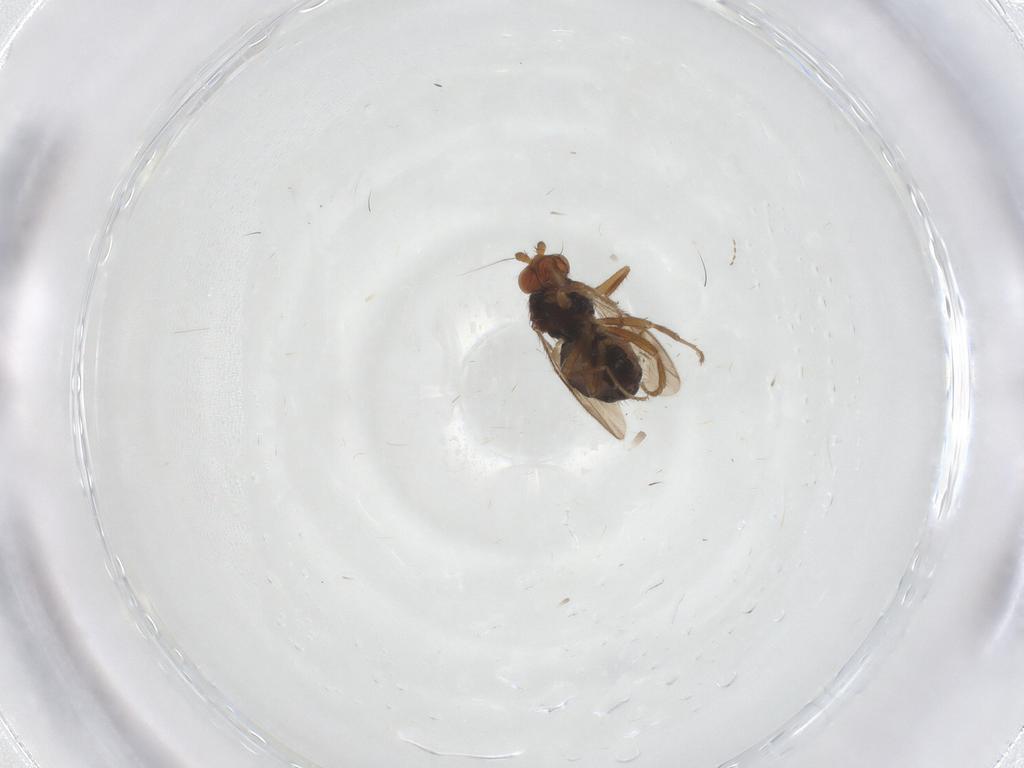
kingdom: Animalia
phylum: Arthropoda
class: Insecta
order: Diptera
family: Sphaeroceridae
